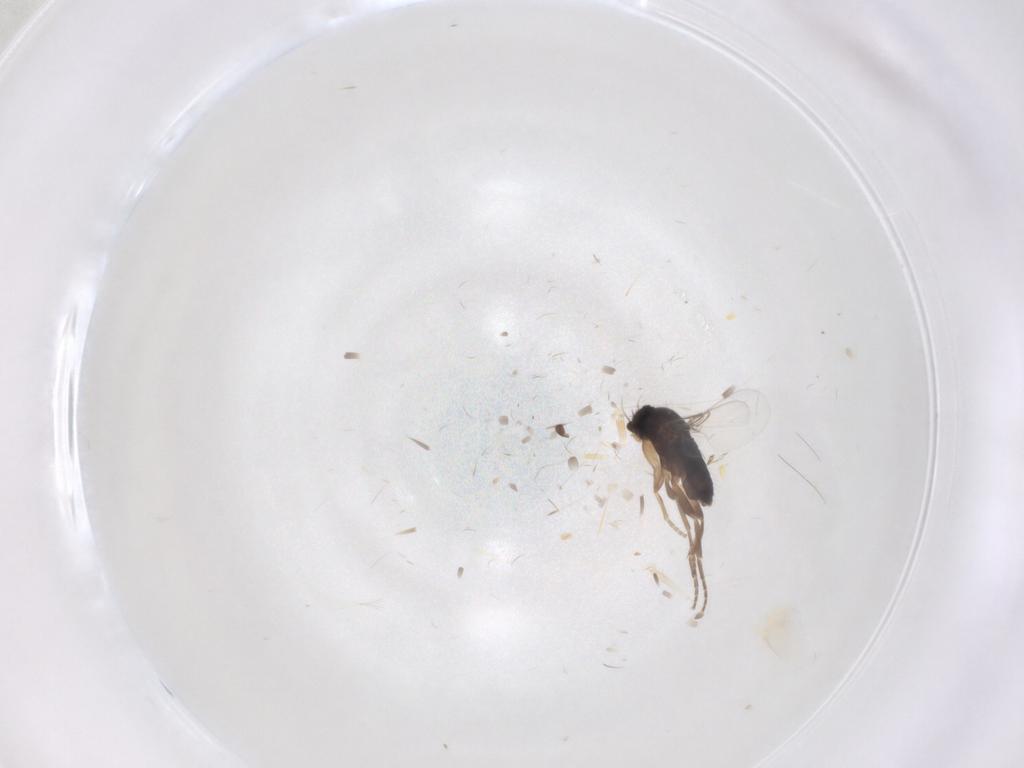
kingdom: Animalia
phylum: Arthropoda
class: Insecta
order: Diptera
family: Phoridae
